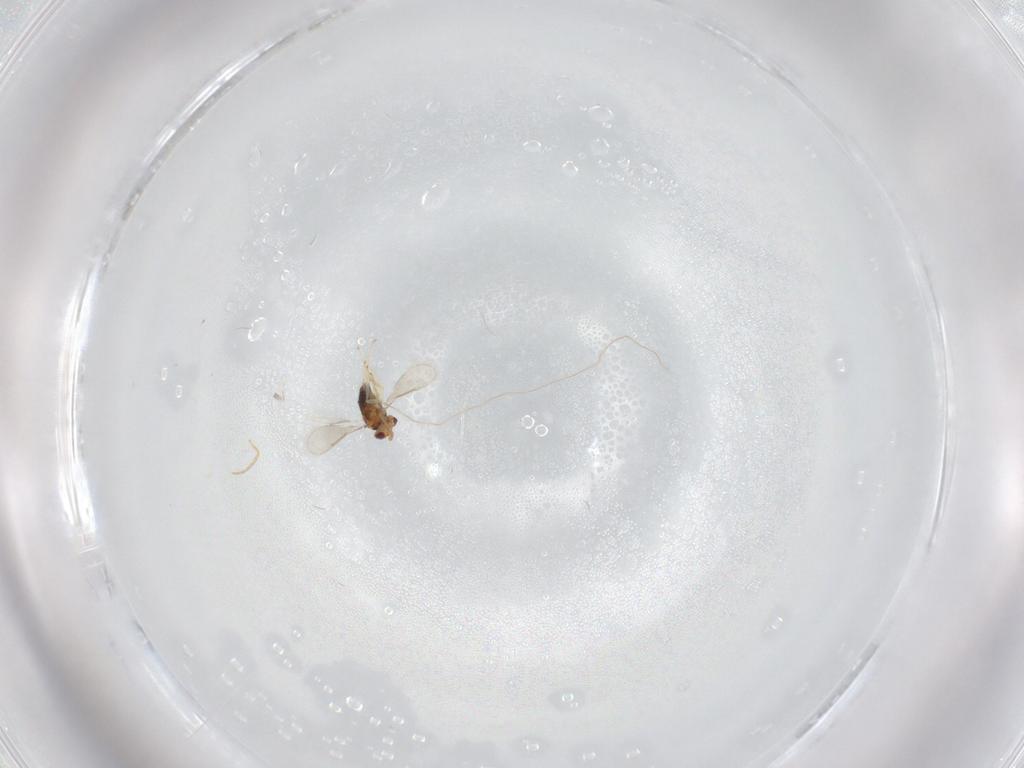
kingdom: Animalia
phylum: Arthropoda
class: Insecta
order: Hymenoptera
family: Aphelinidae
